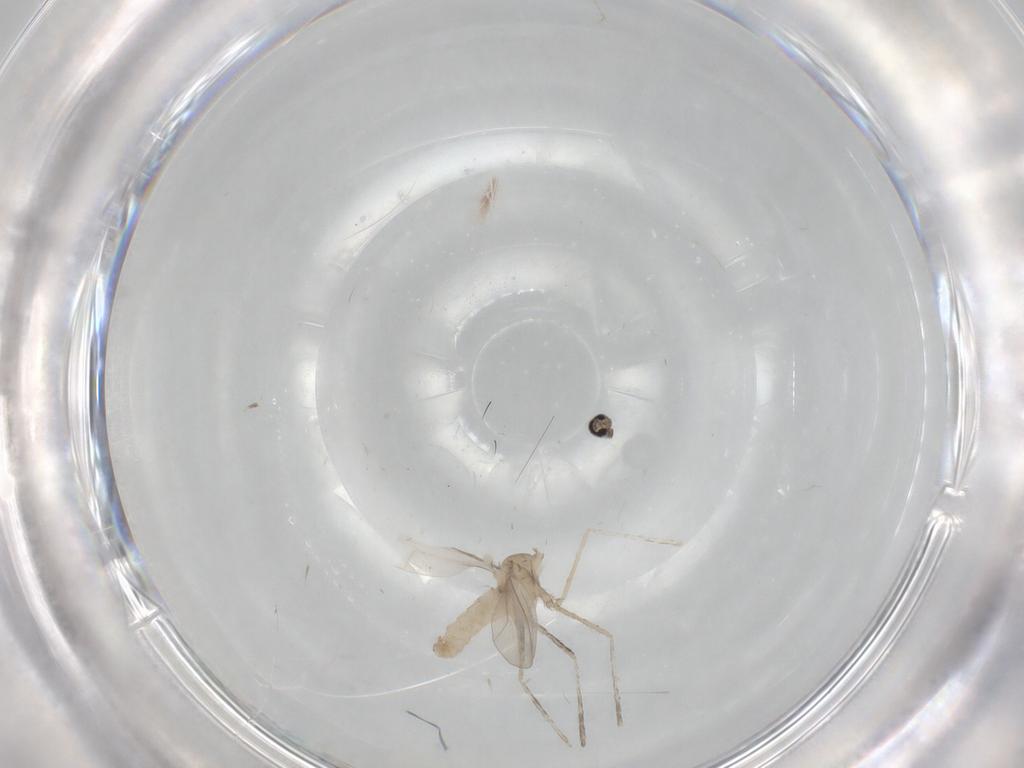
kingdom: Animalia
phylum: Arthropoda
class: Insecta
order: Diptera
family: Cecidomyiidae
